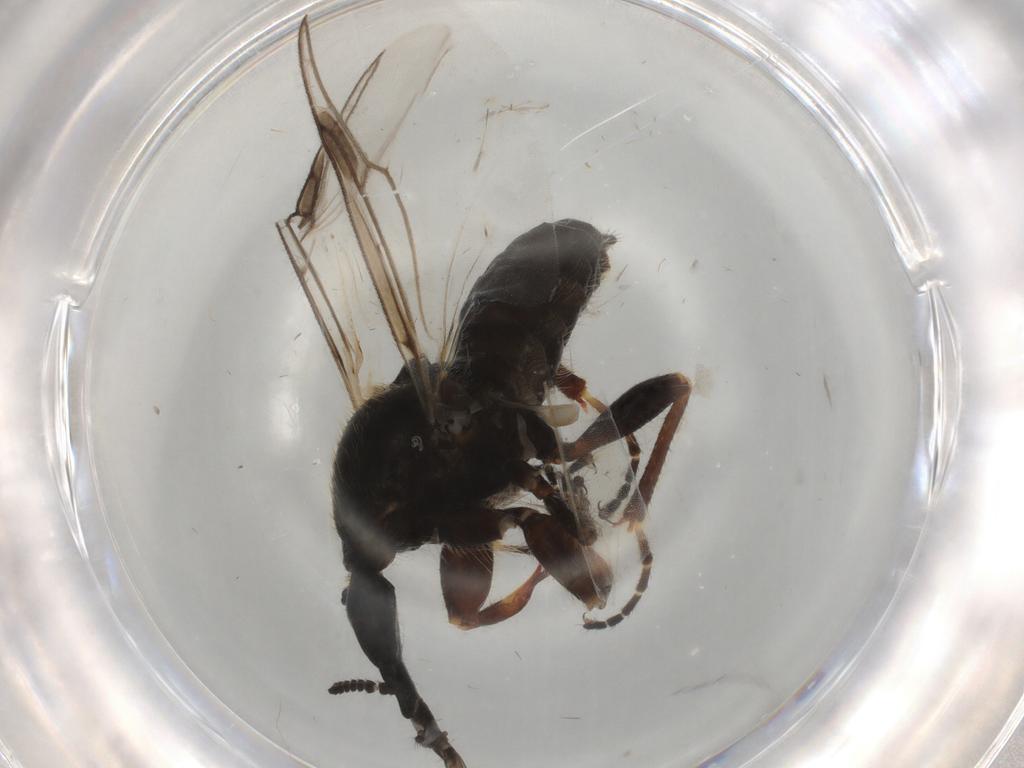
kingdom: Animalia
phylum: Arthropoda
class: Insecta
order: Diptera
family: Bibionidae
